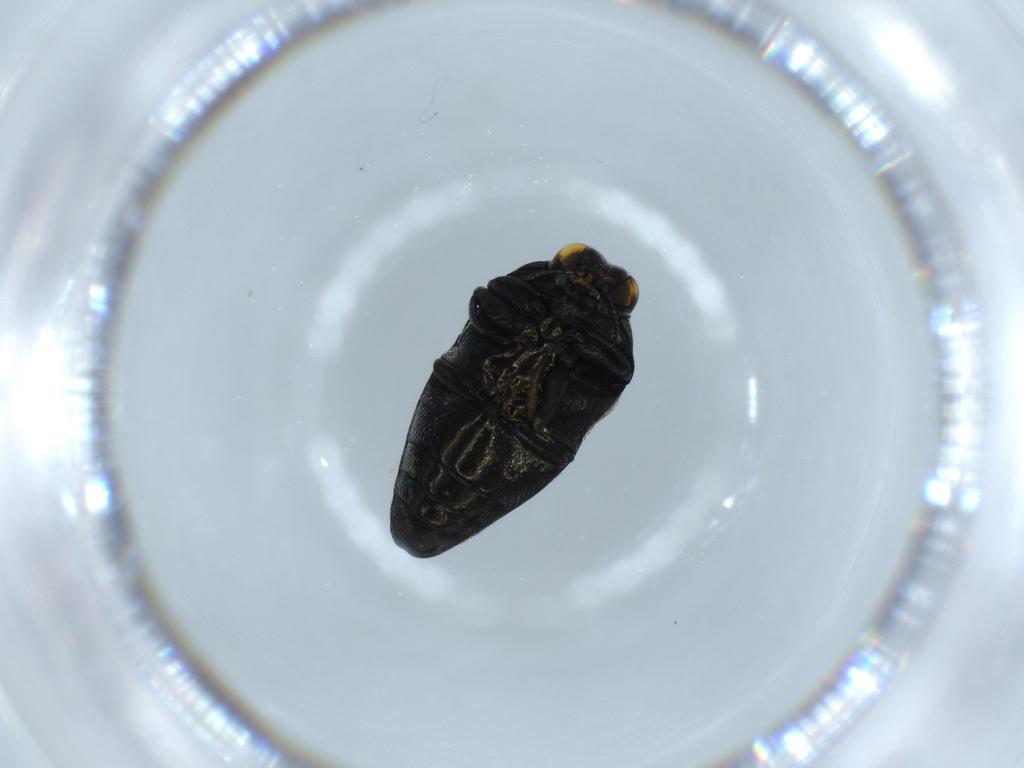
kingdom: Animalia
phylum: Arthropoda
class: Insecta
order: Coleoptera
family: Buprestidae
